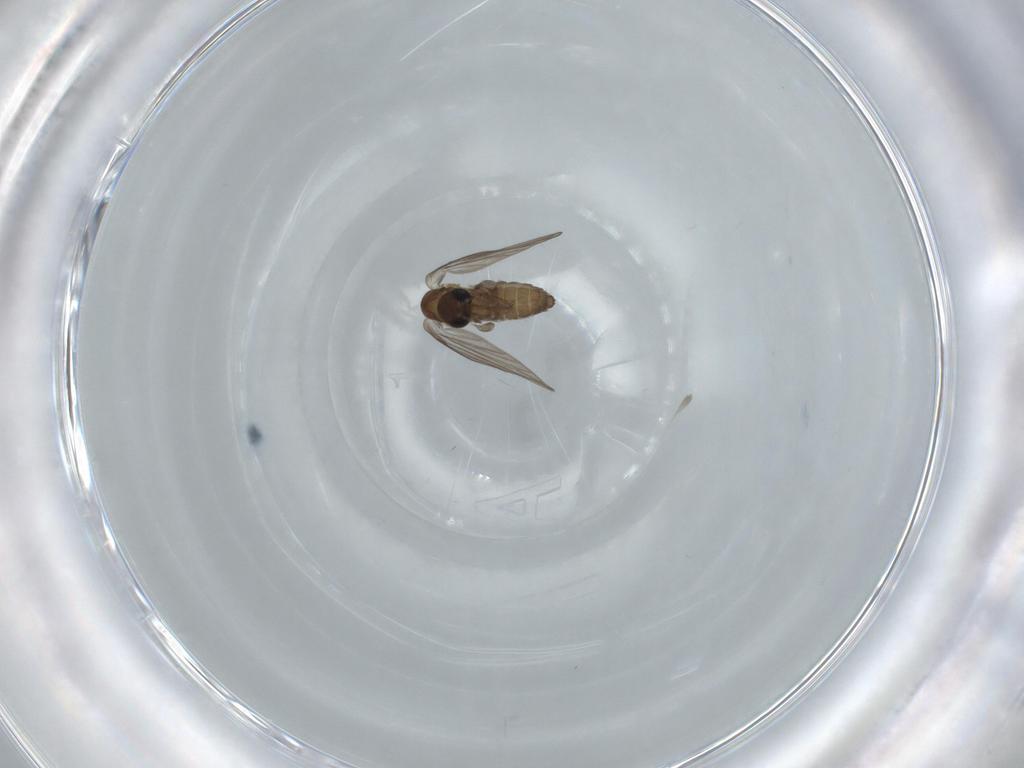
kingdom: Animalia
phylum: Arthropoda
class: Insecta
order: Diptera
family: Psychodidae
